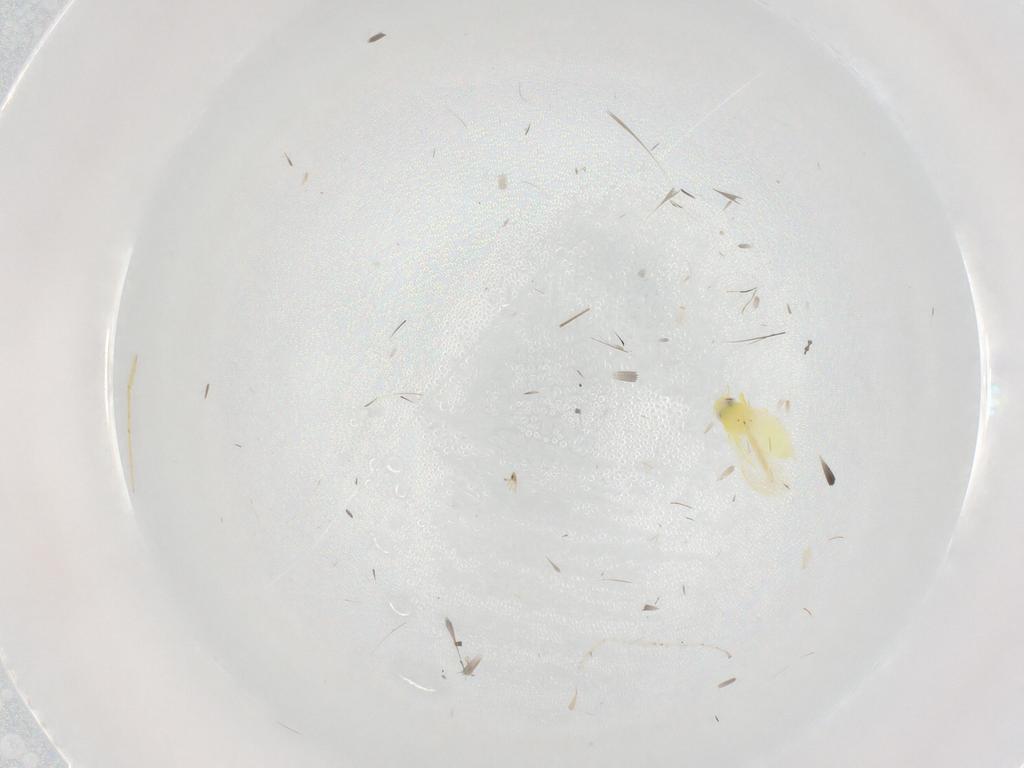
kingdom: Animalia
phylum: Arthropoda
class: Insecta
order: Hemiptera
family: Aleyrodidae
